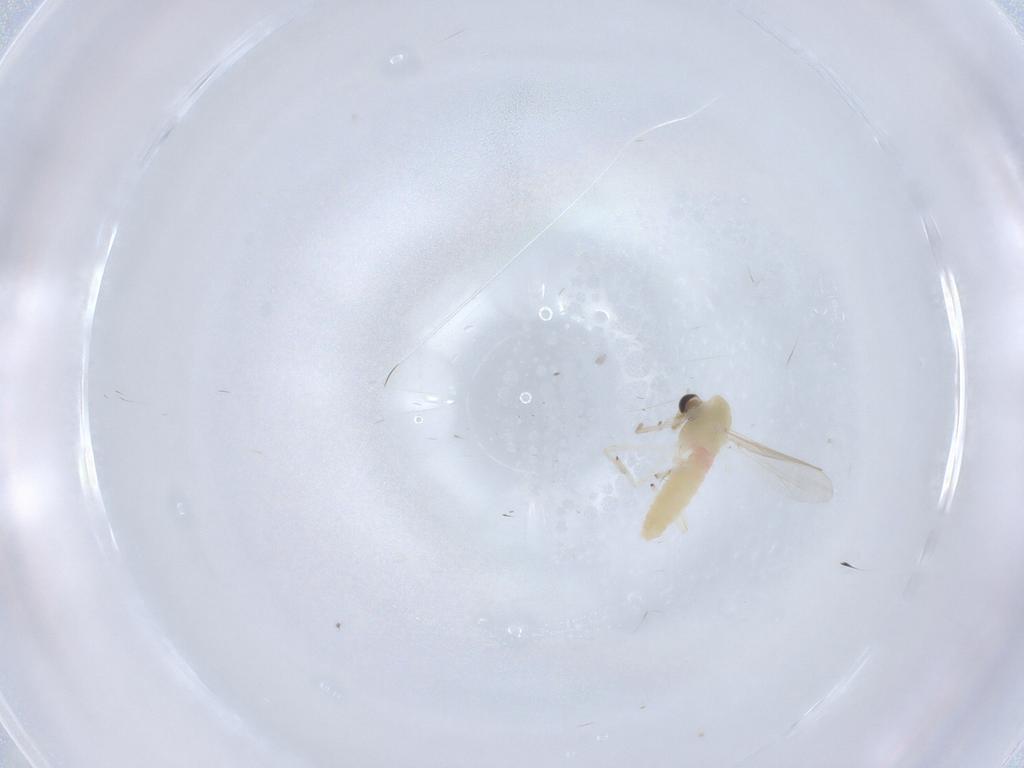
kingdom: Animalia
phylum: Arthropoda
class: Insecta
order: Diptera
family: Chironomidae
